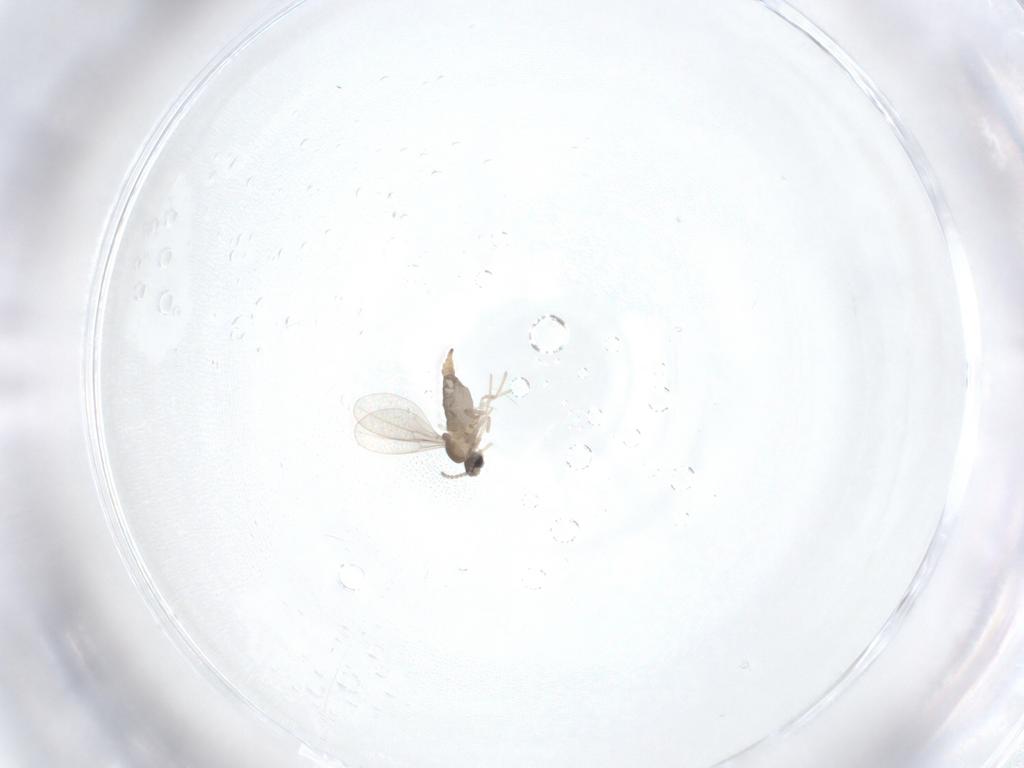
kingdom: Animalia
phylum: Arthropoda
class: Insecta
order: Diptera
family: Cecidomyiidae
